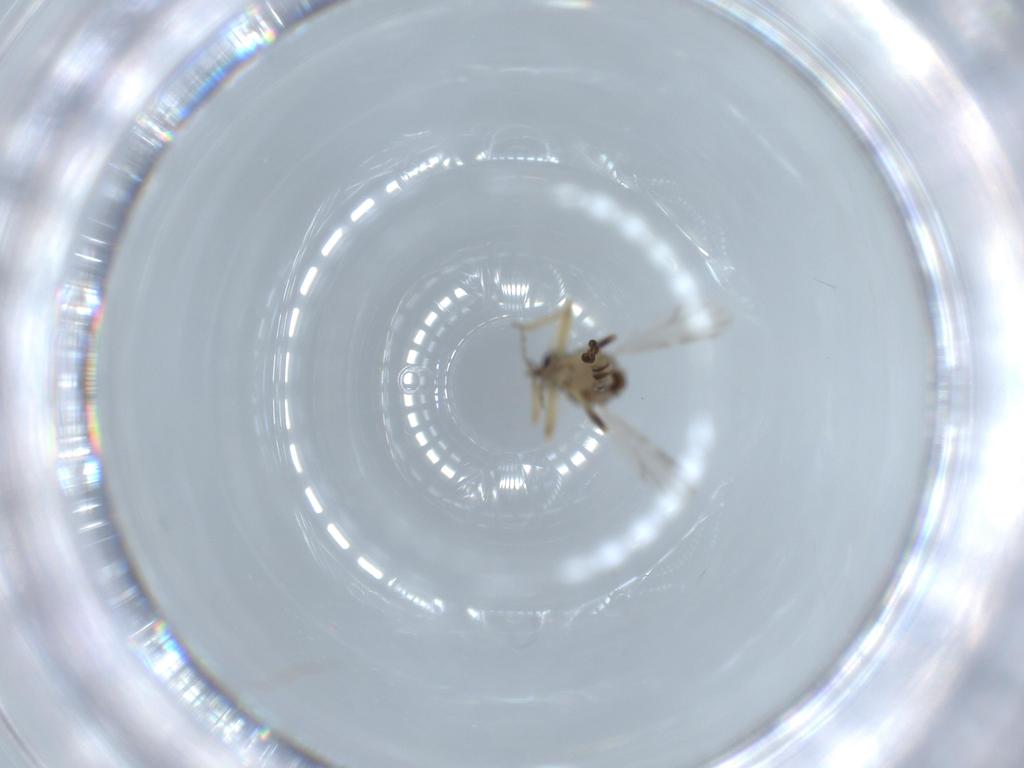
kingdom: Animalia
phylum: Arthropoda
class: Insecta
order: Diptera
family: Ceratopogonidae
